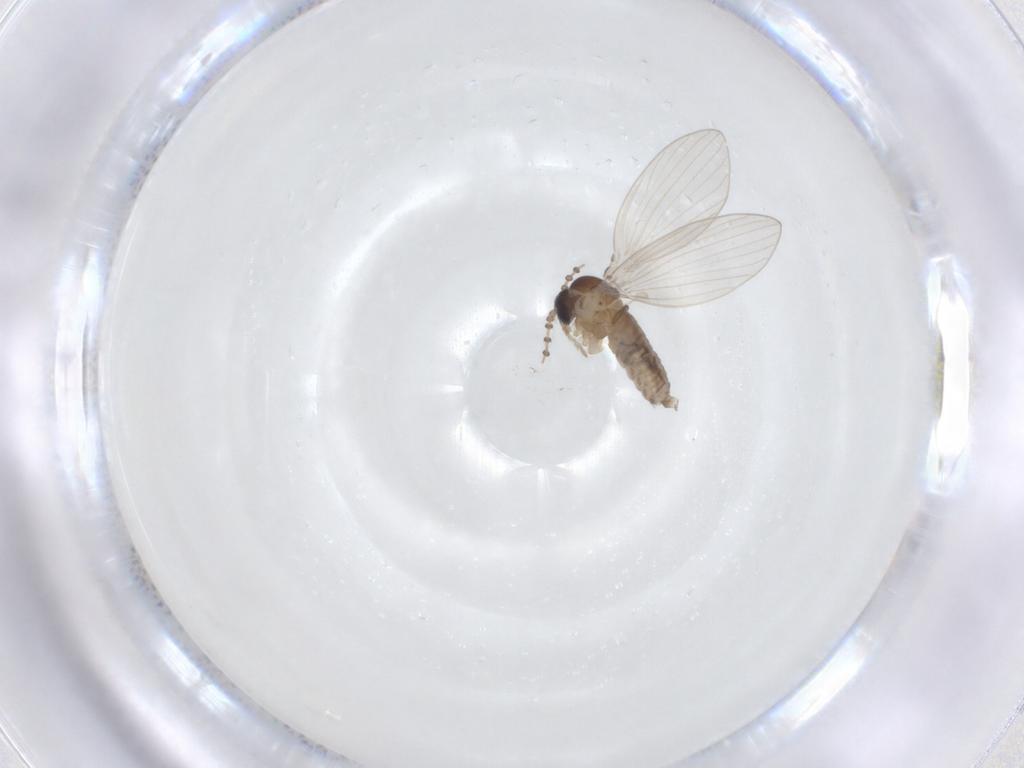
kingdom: Animalia
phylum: Arthropoda
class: Insecta
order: Diptera
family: Psychodidae
